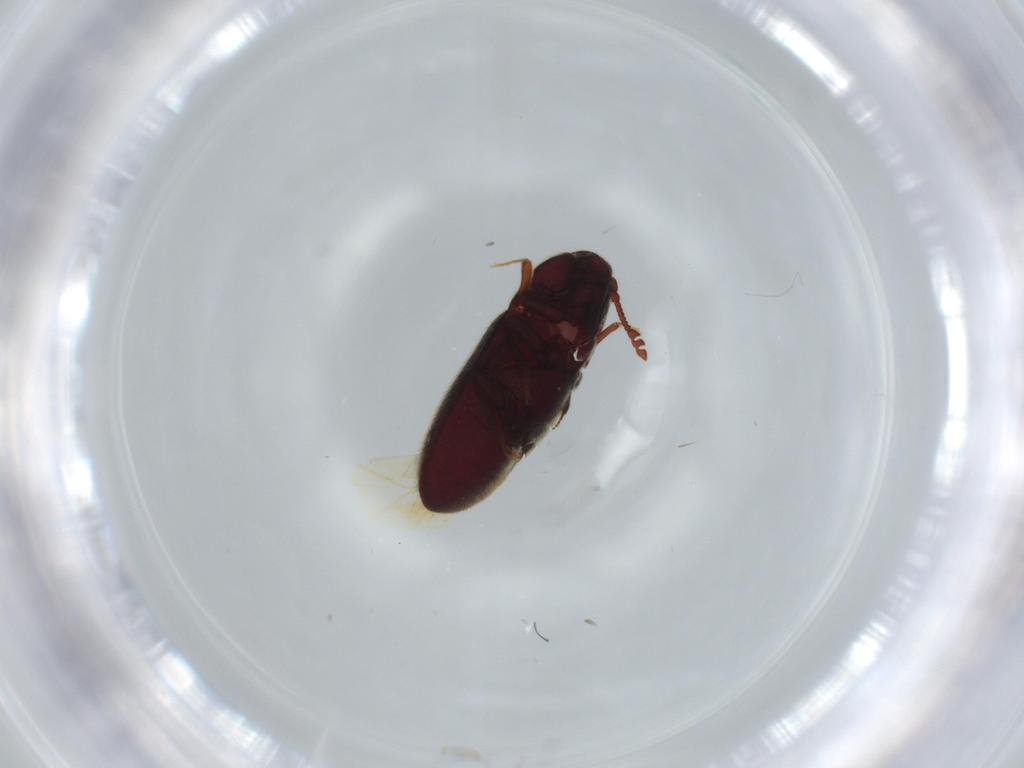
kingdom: Animalia
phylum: Arthropoda
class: Insecta
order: Coleoptera
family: Throscidae
